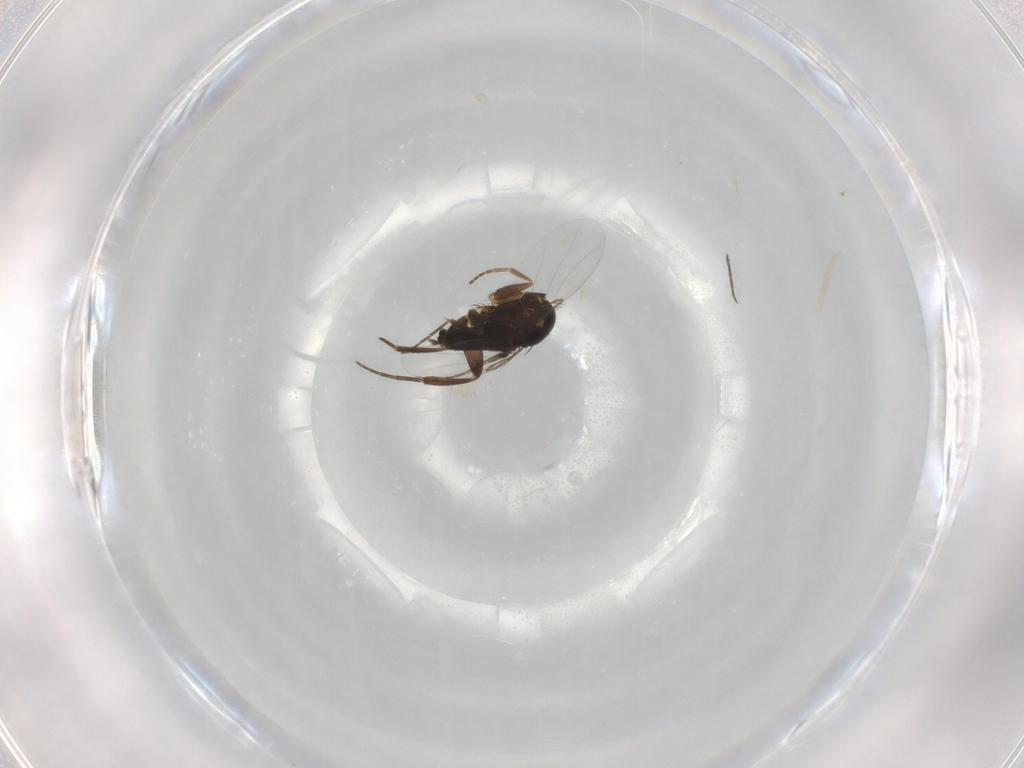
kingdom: Animalia
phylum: Arthropoda
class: Insecta
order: Diptera
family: Phoridae
